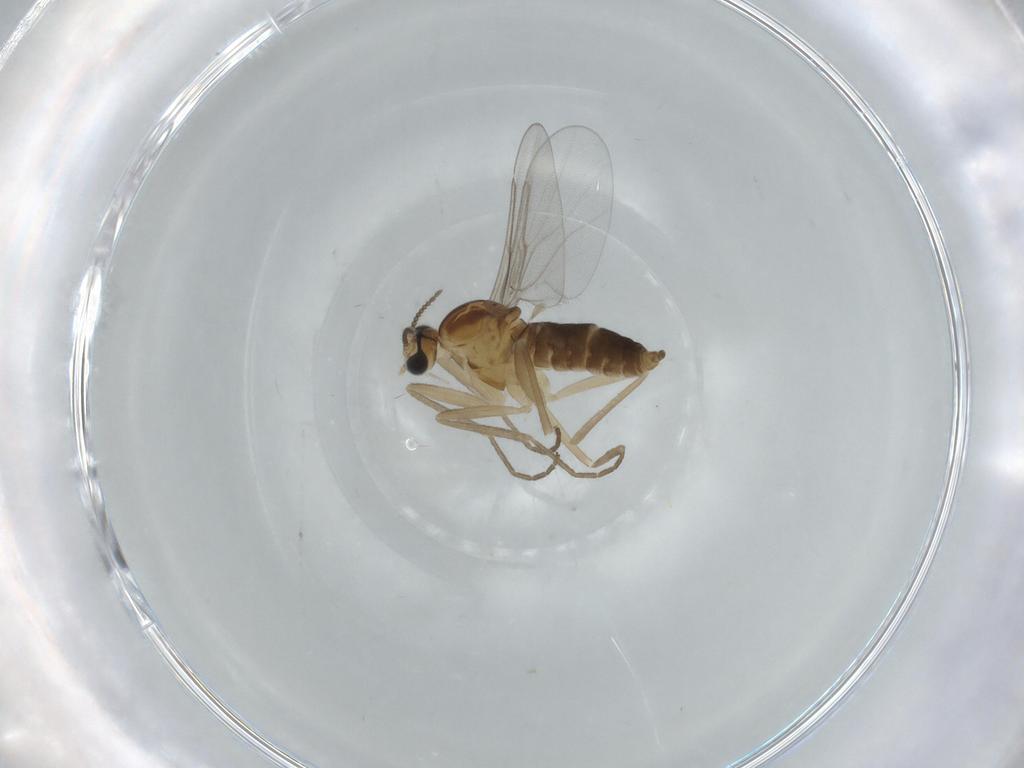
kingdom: Animalia
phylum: Arthropoda
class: Insecta
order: Diptera
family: Cecidomyiidae
